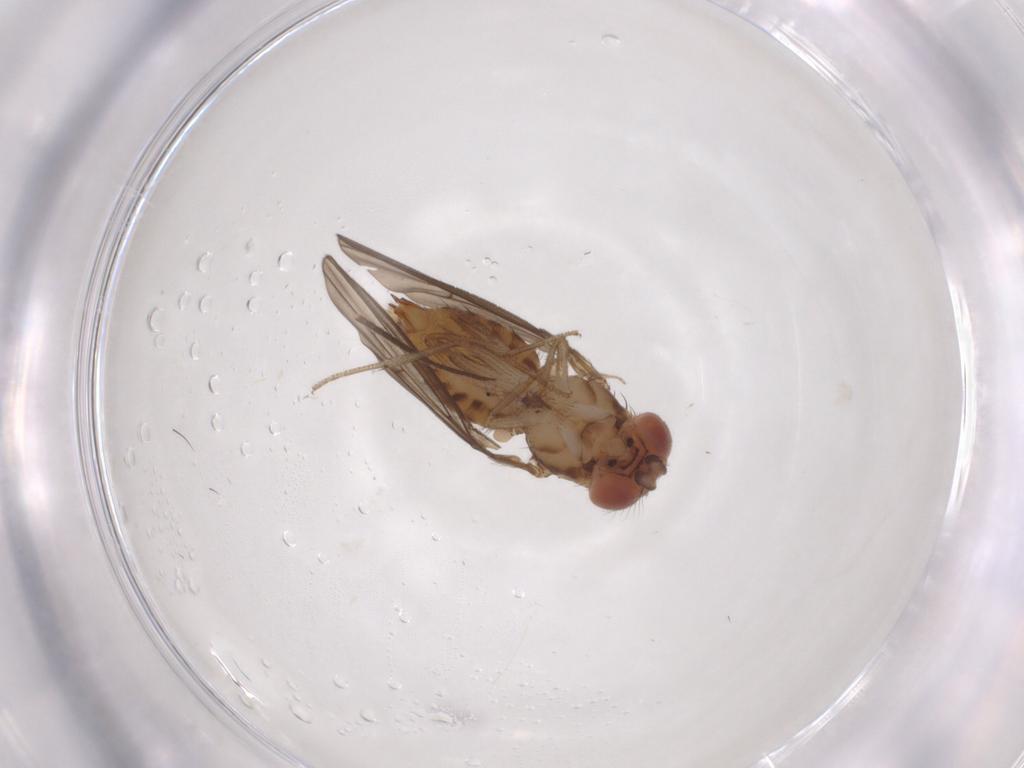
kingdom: Animalia
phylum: Arthropoda
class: Insecta
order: Diptera
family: Muscidae
